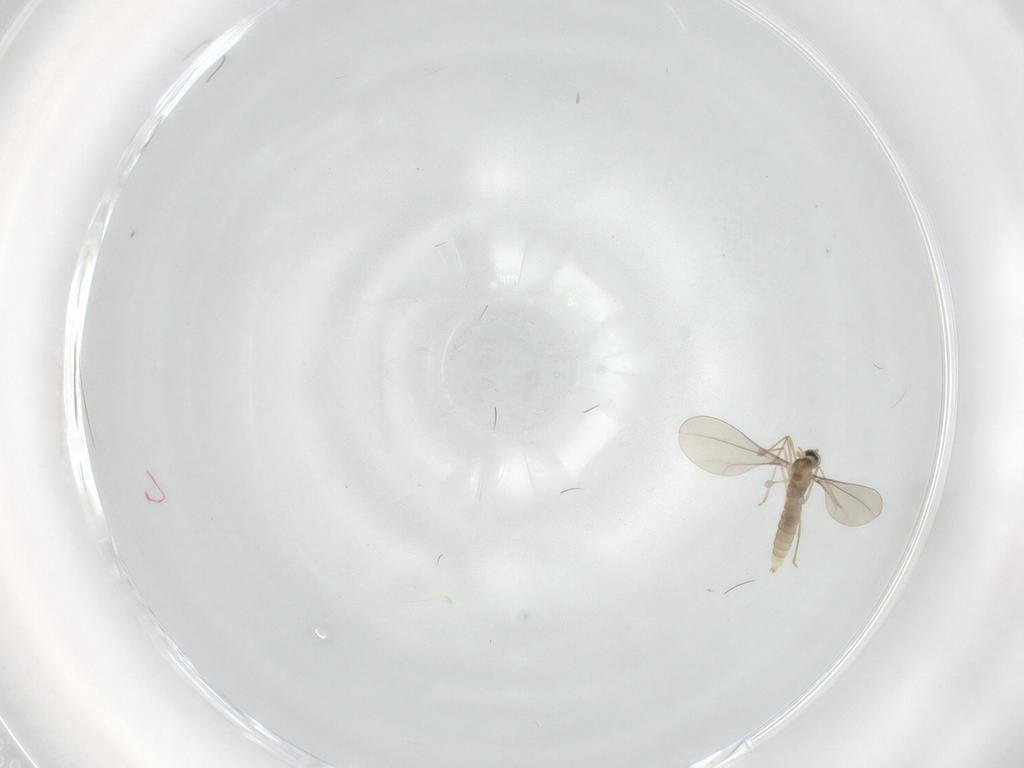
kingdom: Animalia
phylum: Arthropoda
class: Insecta
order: Diptera
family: Cecidomyiidae
